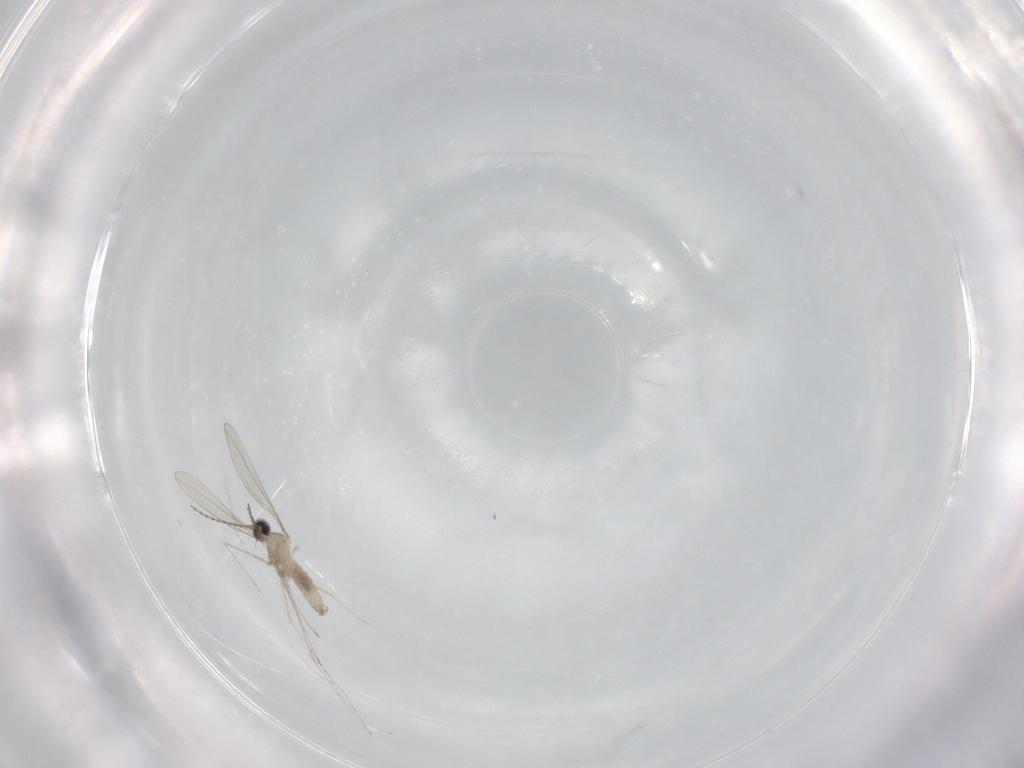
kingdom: Animalia
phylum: Arthropoda
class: Insecta
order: Diptera
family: Cecidomyiidae
